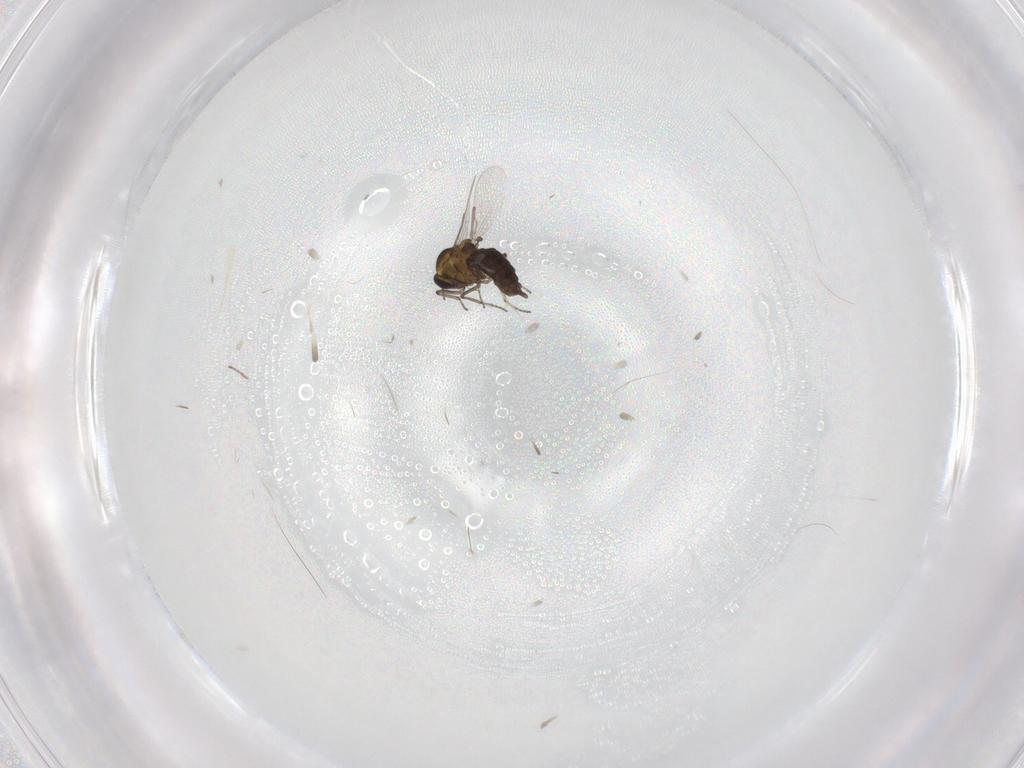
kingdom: Animalia
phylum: Arthropoda
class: Insecta
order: Diptera
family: Ceratopogonidae
